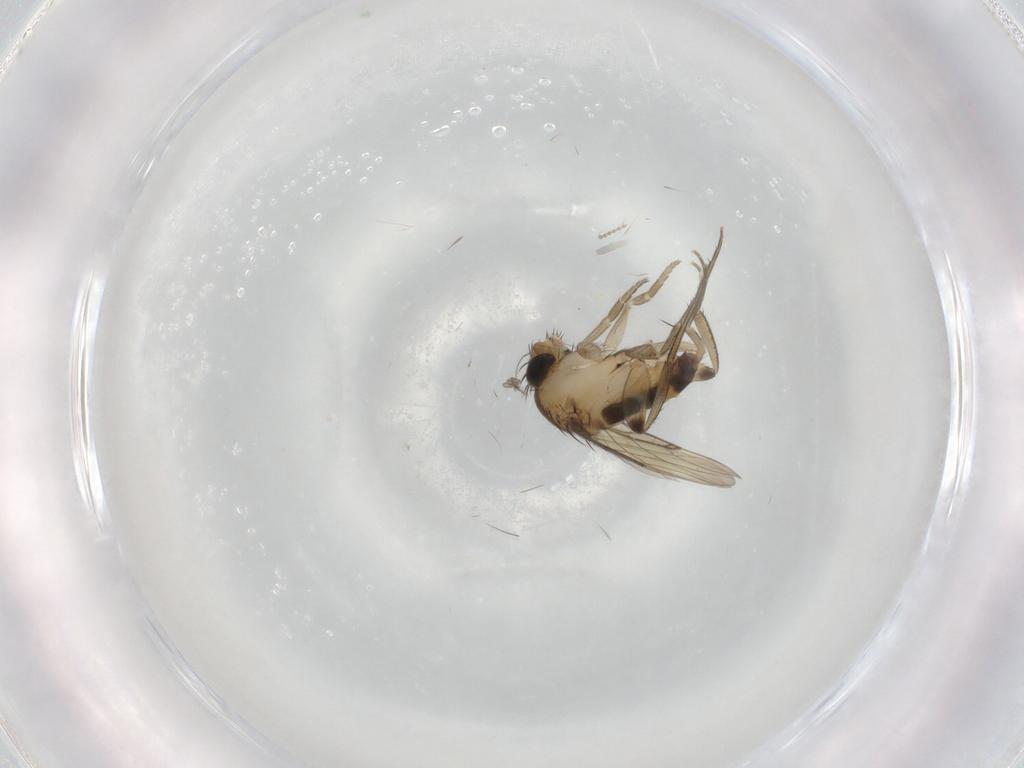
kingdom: Animalia
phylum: Arthropoda
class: Insecta
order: Diptera
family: Ceratopogonidae
